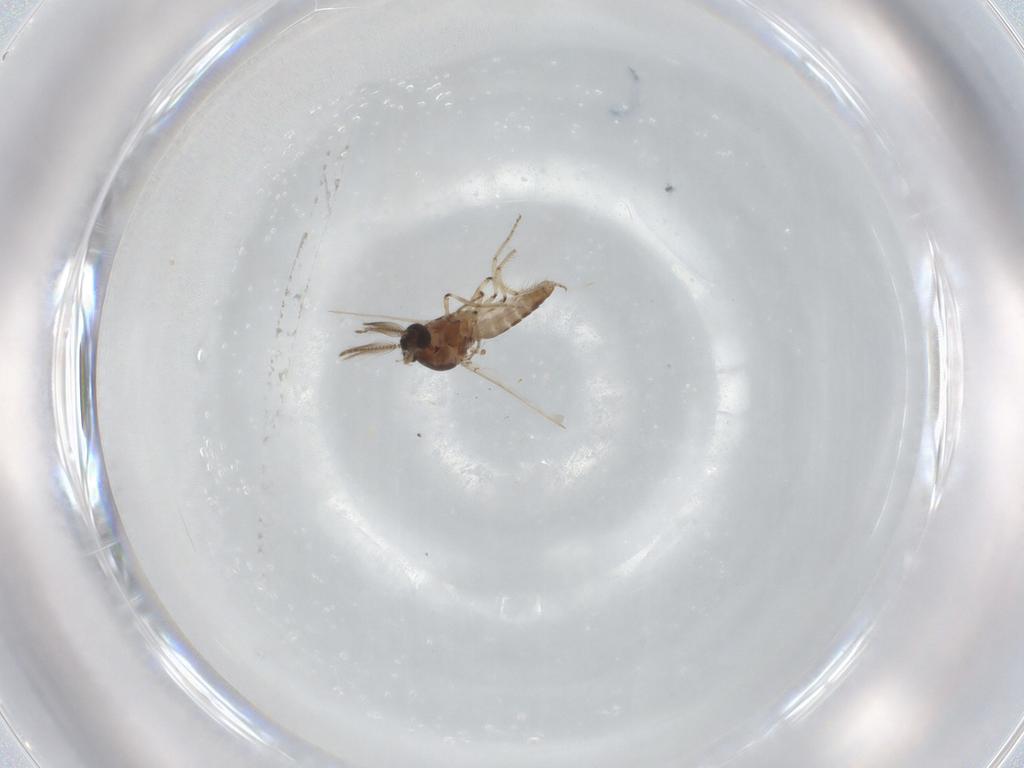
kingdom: Animalia
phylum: Arthropoda
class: Insecta
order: Diptera
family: Ceratopogonidae
